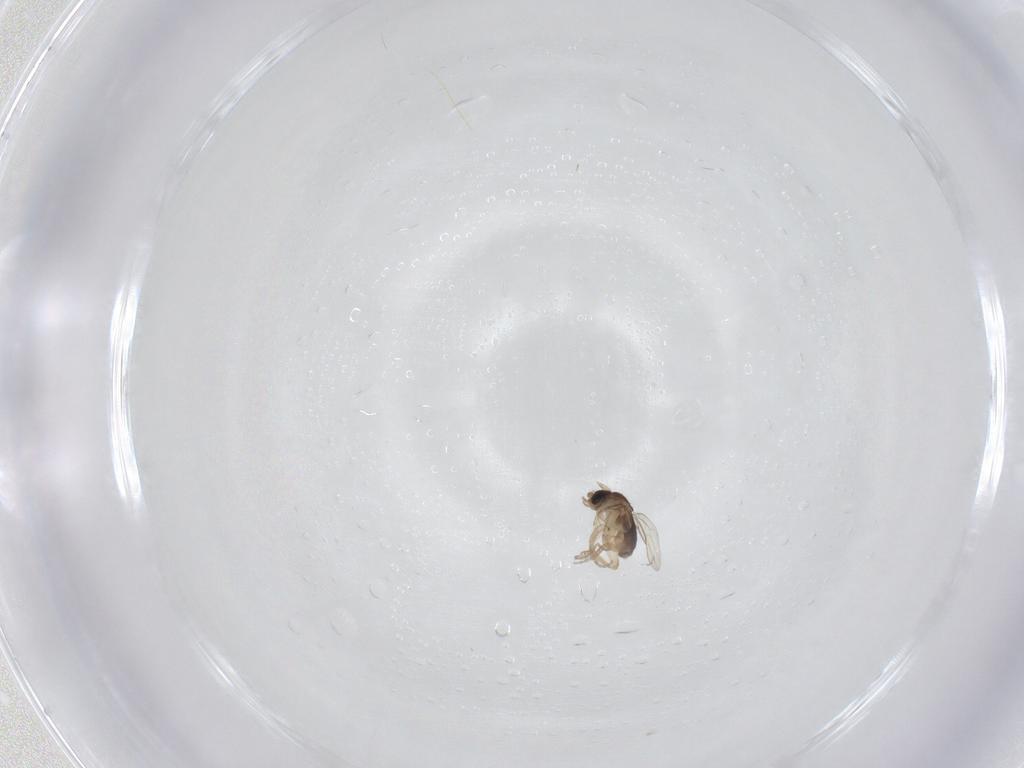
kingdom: Animalia
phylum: Arthropoda
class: Insecta
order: Diptera
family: Phoridae
